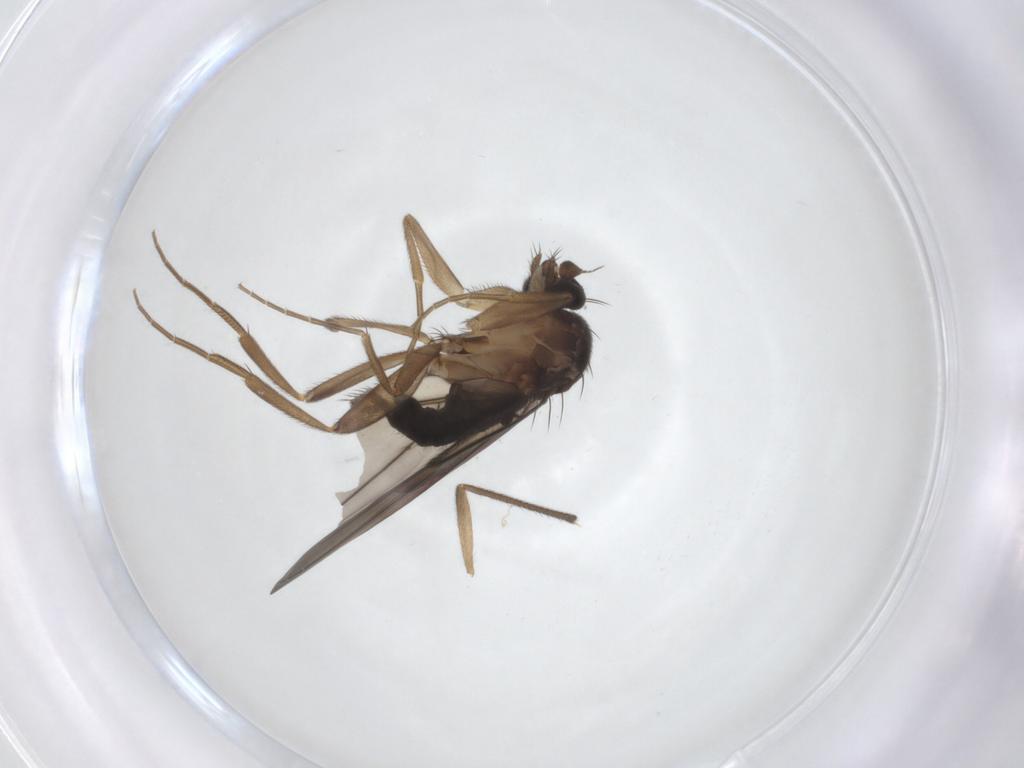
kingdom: Animalia
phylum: Arthropoda
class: Insecta
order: Diptera
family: Phoridae
